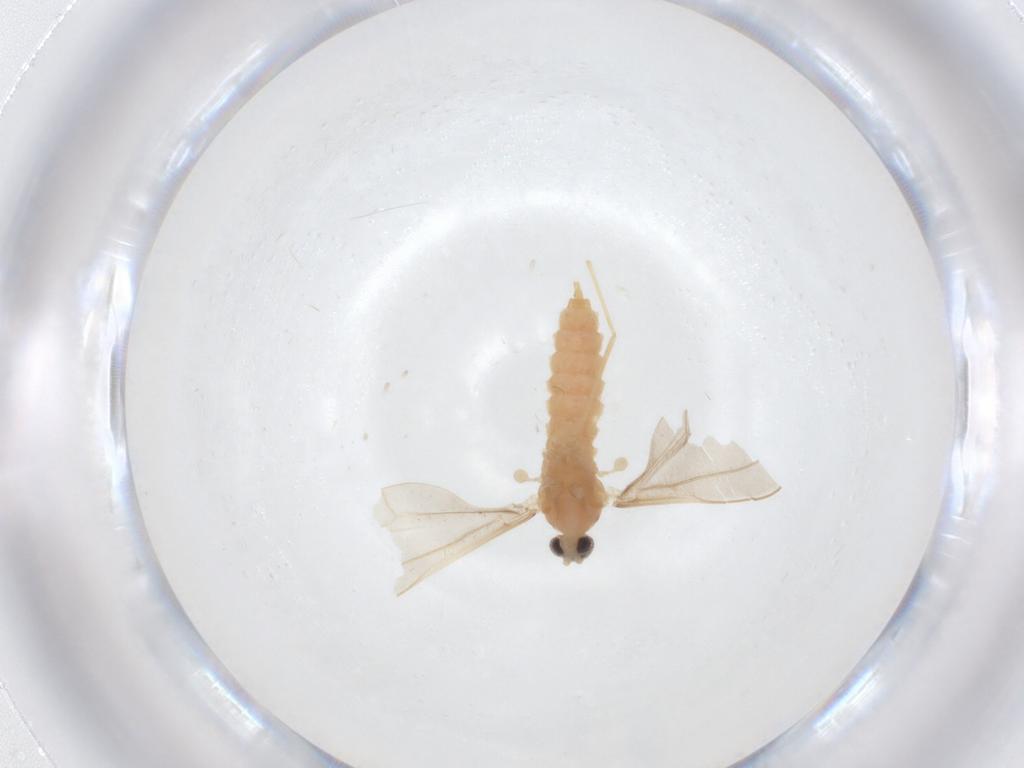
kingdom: Animalia
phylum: Arthropoda
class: Insecta
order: Diptera
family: Cecidomyiidae
